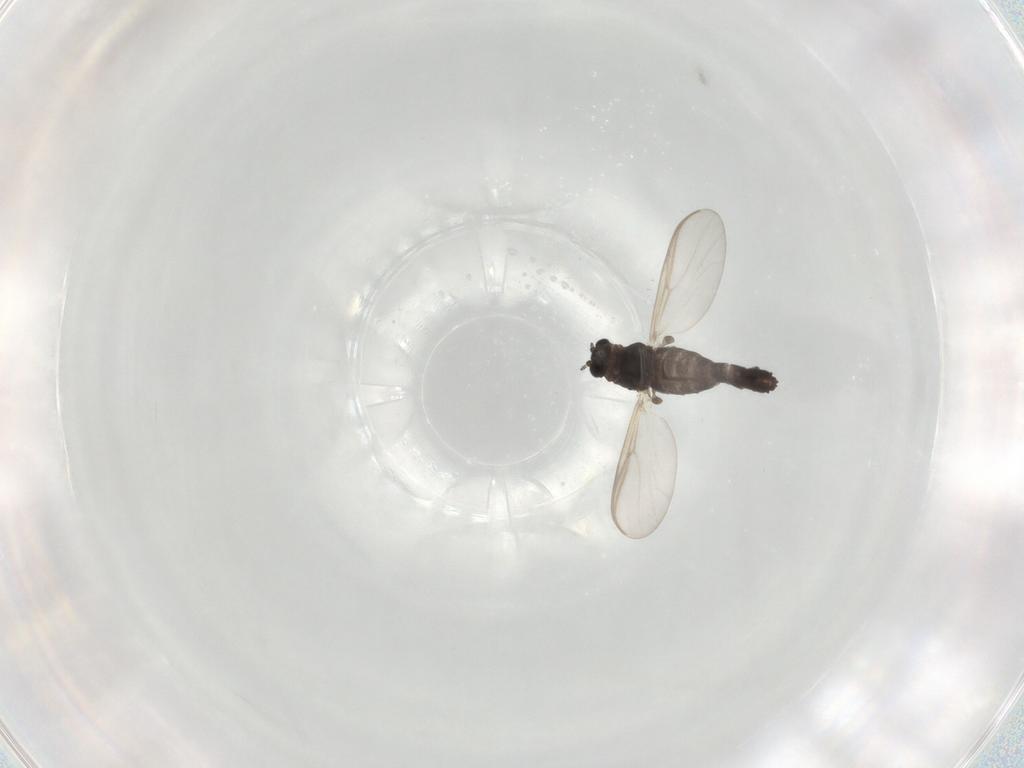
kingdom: Animalia
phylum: Arthropoda
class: Insecta
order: Diptera
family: Chironomidae
